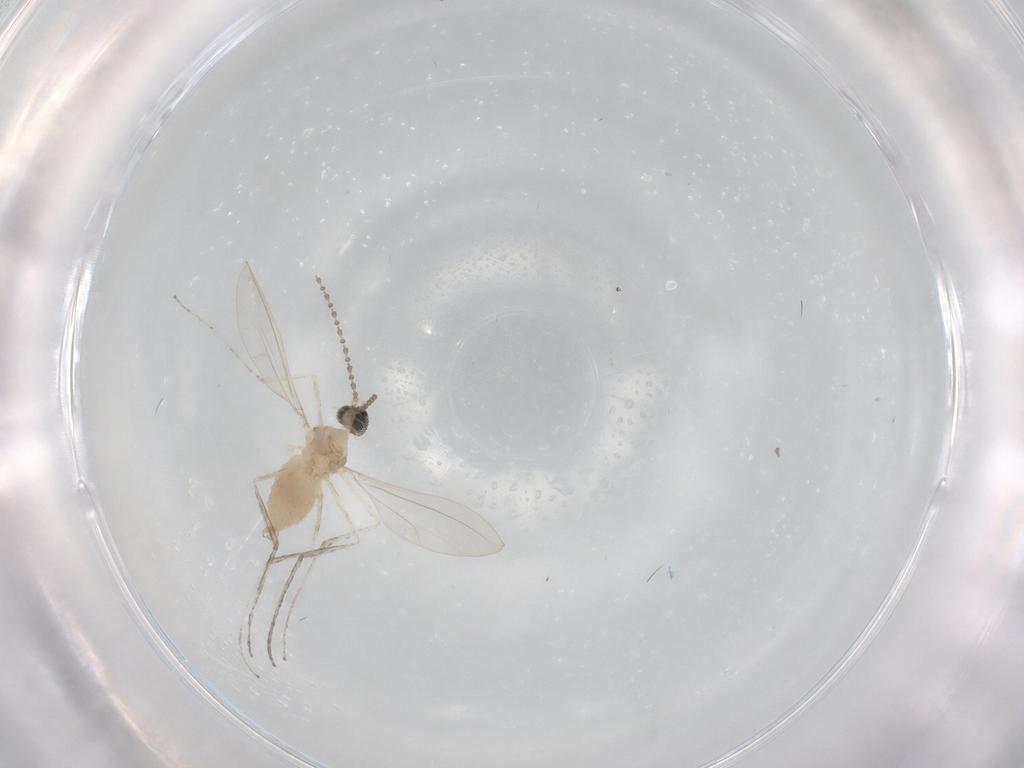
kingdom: Animalia
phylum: Arthropoda
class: Insecta
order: Diptera
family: Cecidomyiidae
